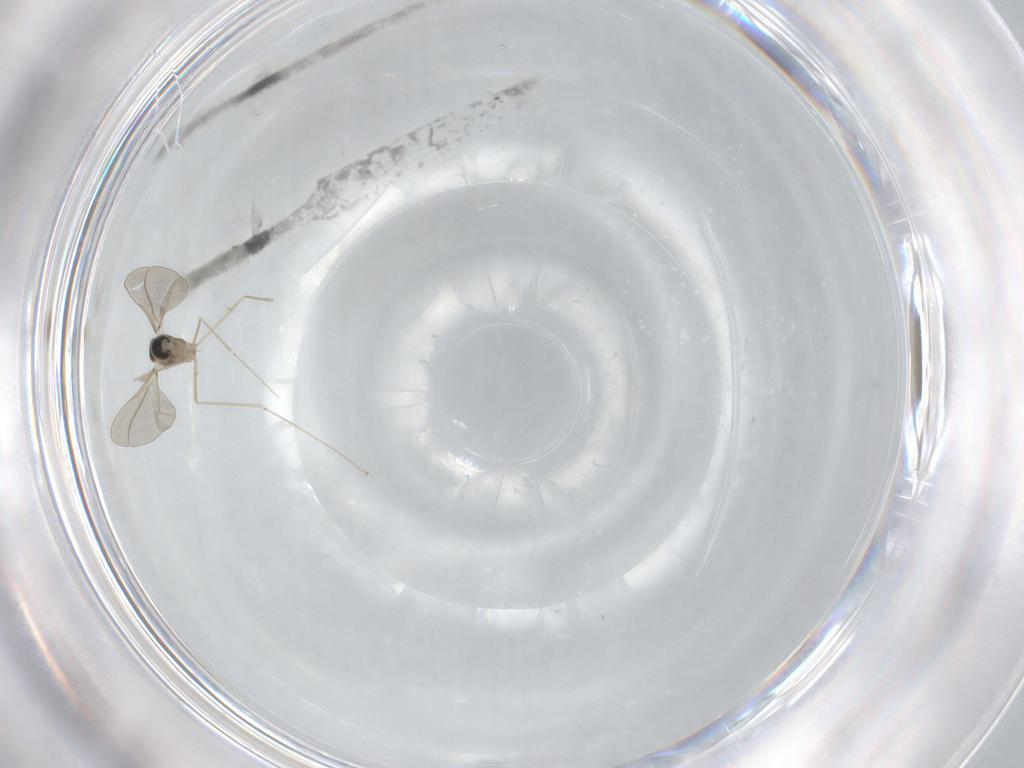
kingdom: Animalia
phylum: Arthropoda
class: Insecta
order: Diptera
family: Cecidomyiidae
